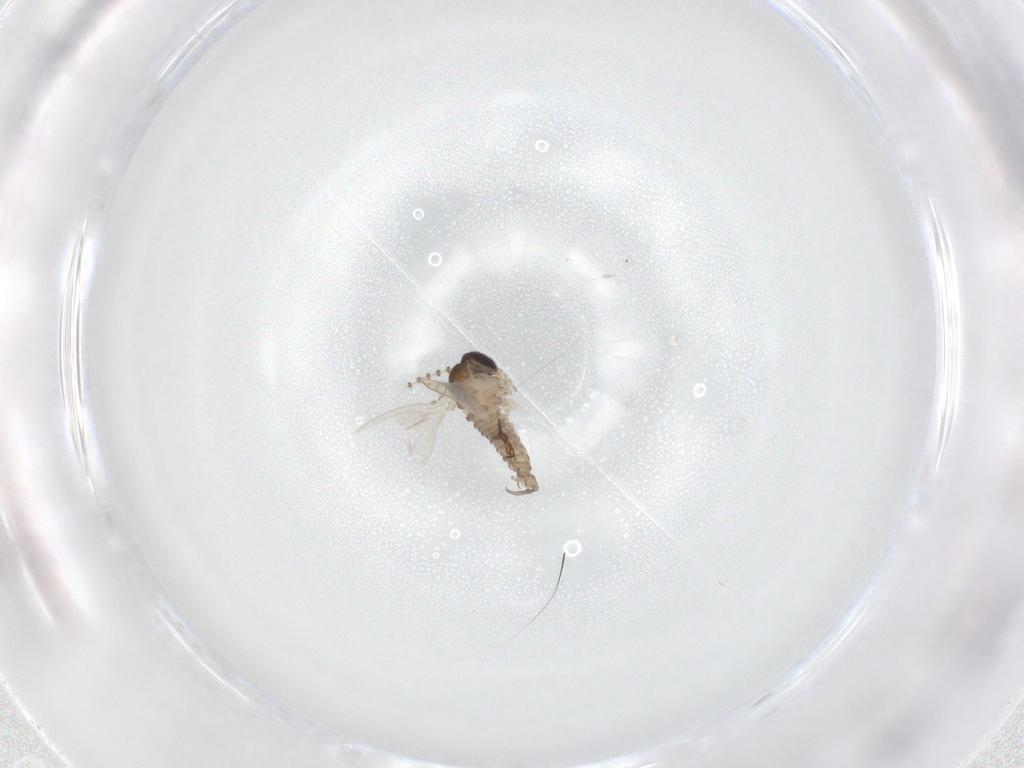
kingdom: Animalia
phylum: Arthropoda
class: Insecta
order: Diptera
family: Psychodidae
